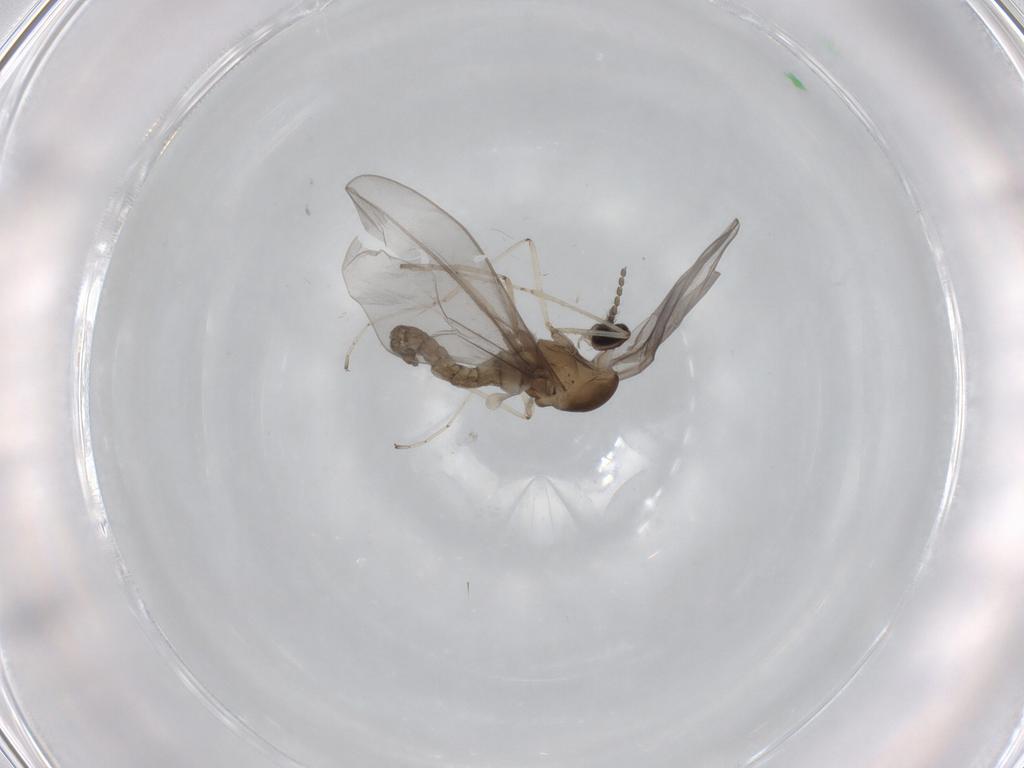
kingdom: Animalia
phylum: Arthropoda
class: Insecta
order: Diptera
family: Cecidomyiidae
